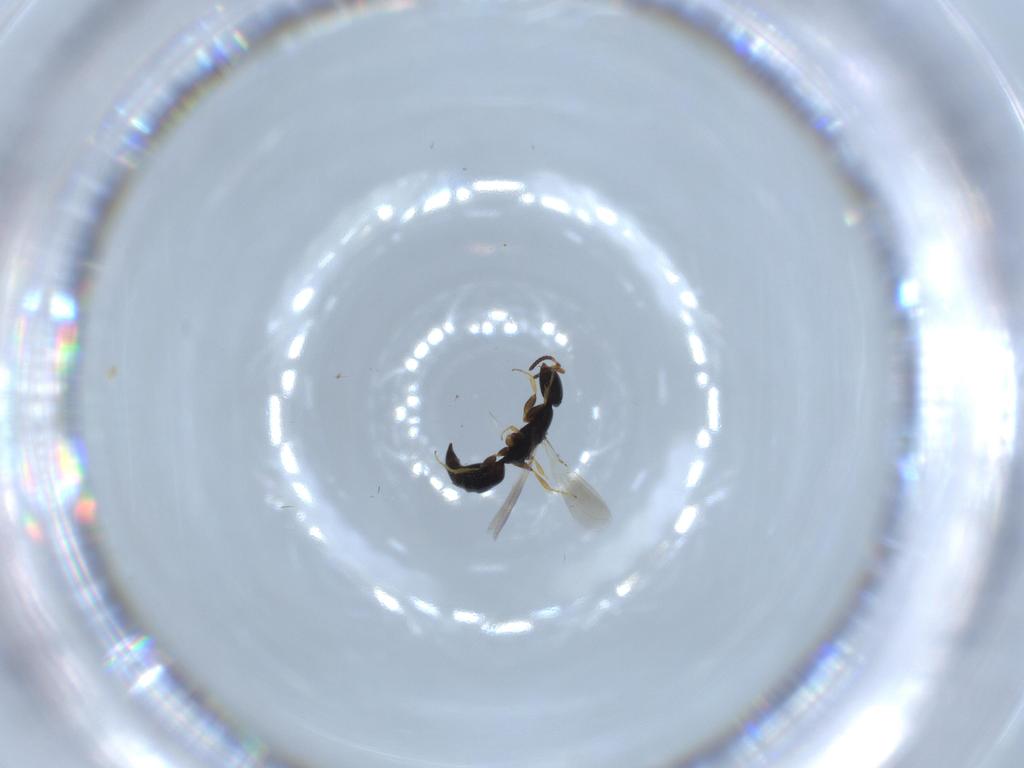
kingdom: Animalia
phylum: Arthropoda
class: Insecta
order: Hymenoptera
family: Bethylidae
